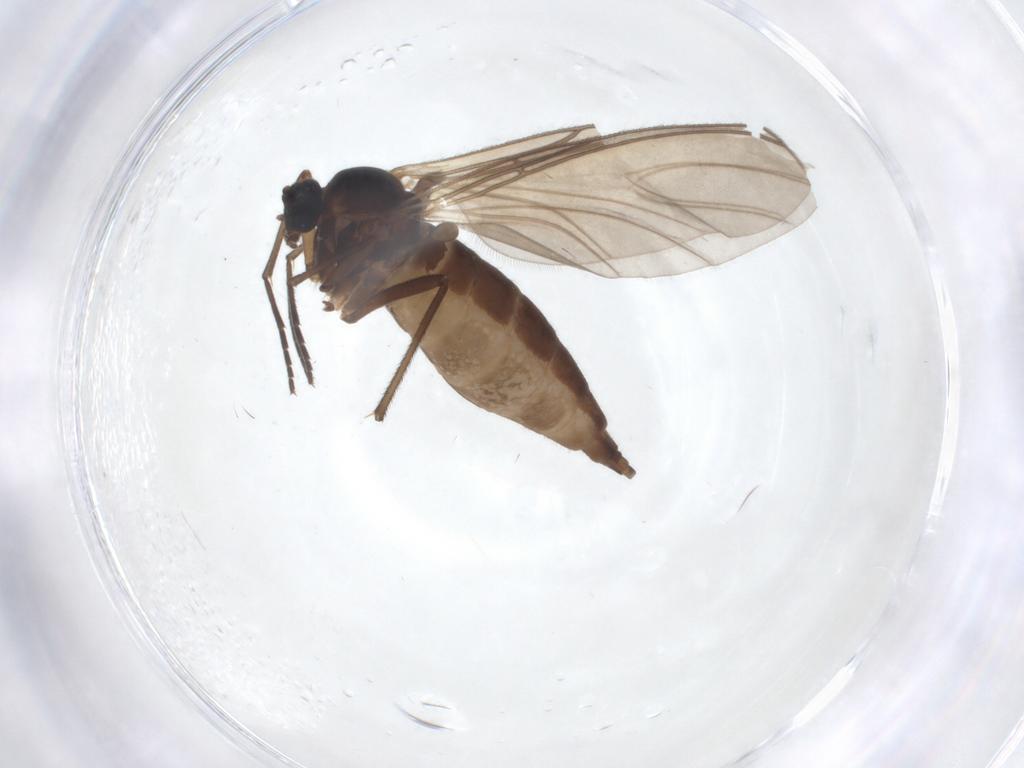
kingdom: Animalia
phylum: Arthropoda
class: Insecta
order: Diptera
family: Sciaridae
